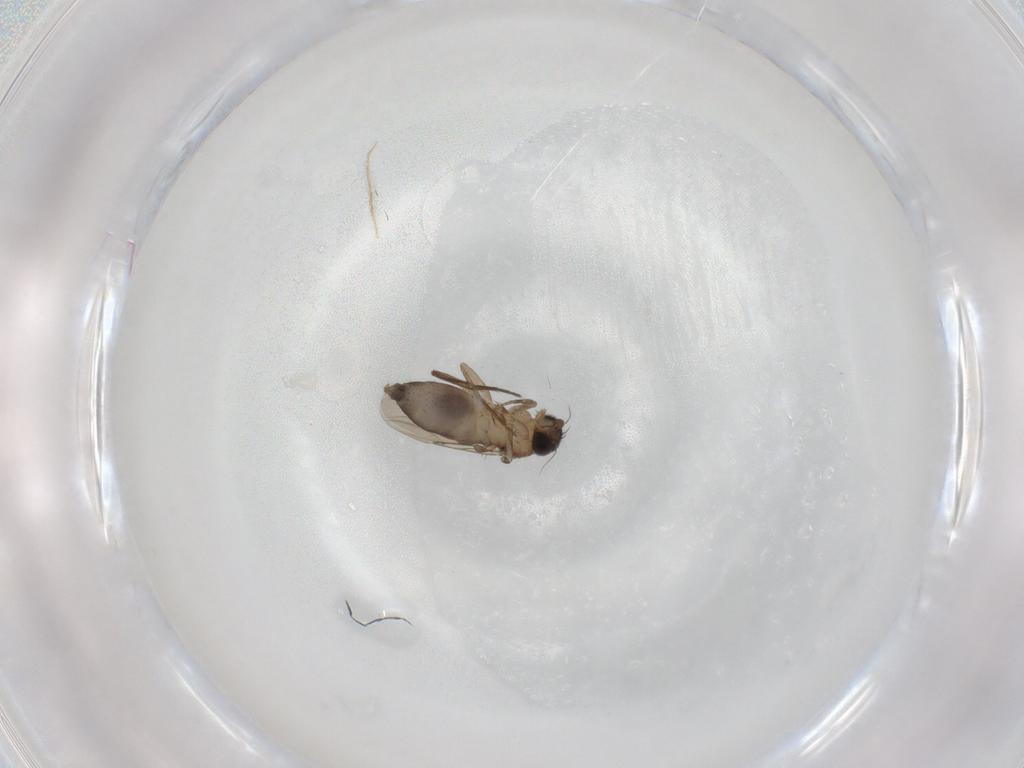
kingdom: Animalia
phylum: Arthropoda
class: Insecta
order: Diptera
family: Phoridae
